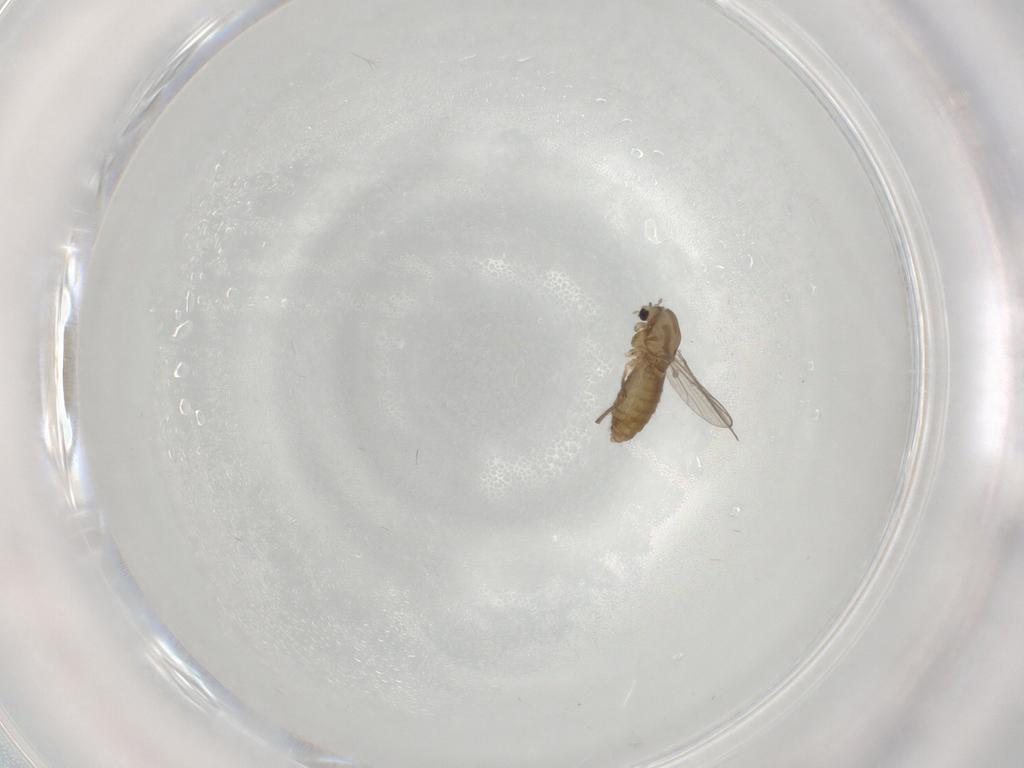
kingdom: Animalia
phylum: Arthropoda
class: Insecta
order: Diptera
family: Chironomidae
